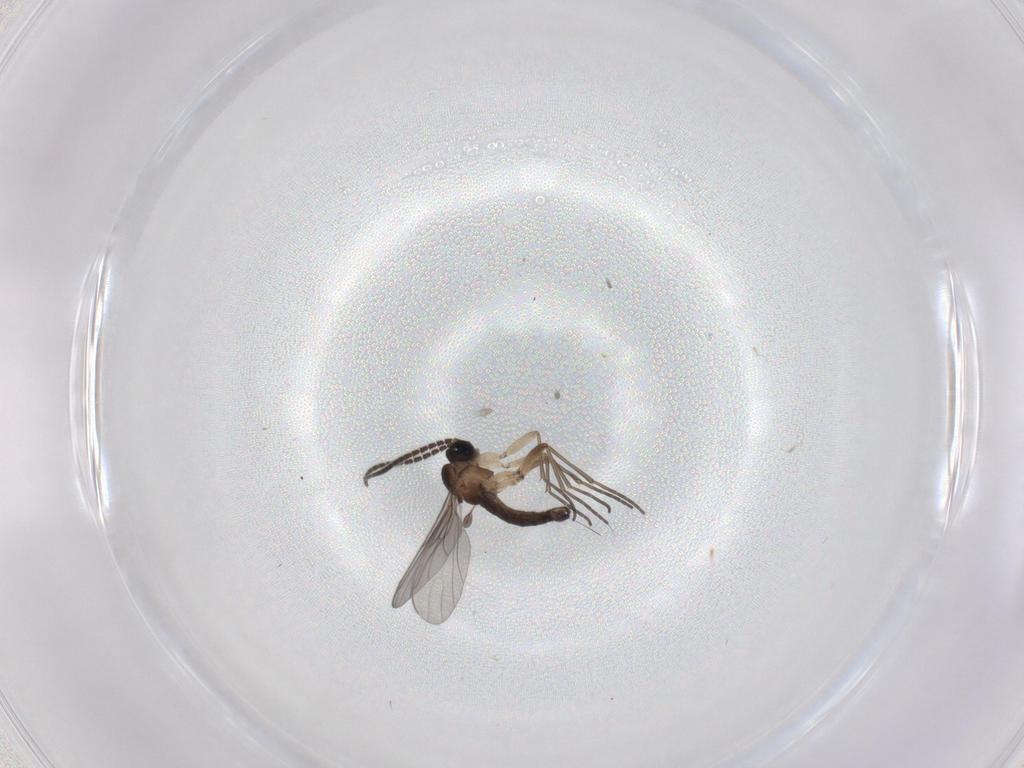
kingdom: Animalia
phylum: Arthropoda
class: Insecta
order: Diptera
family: Sciaridae
